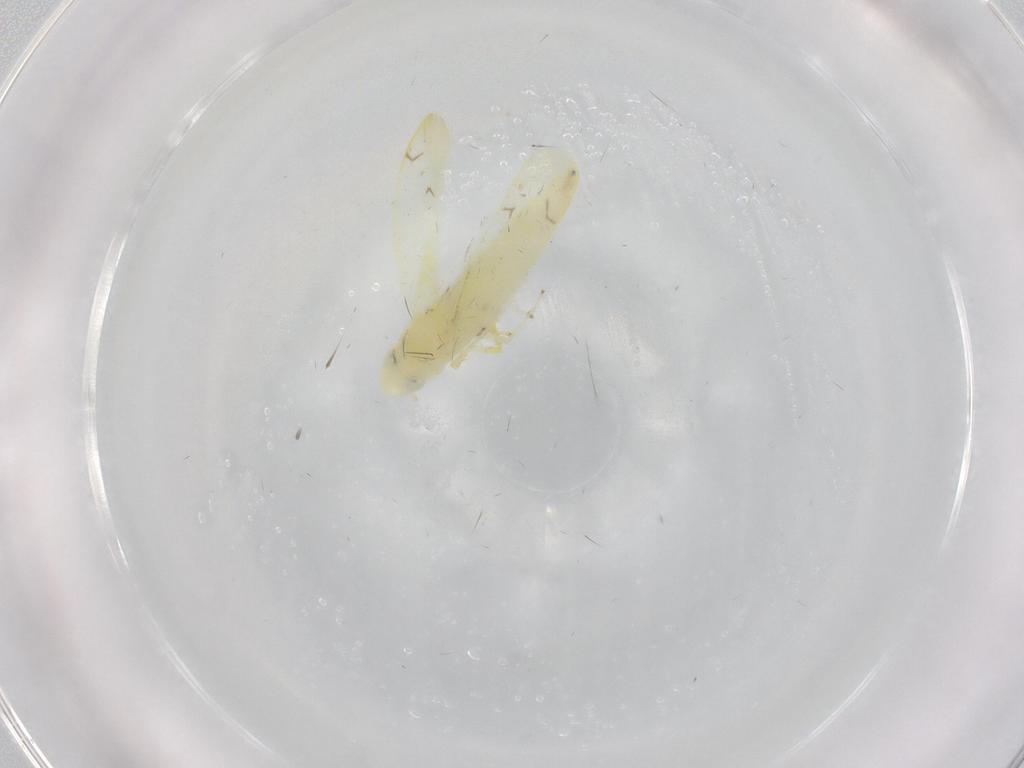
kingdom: Animalia
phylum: Arthropoda
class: Insecta
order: Hemiptera
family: Cicadellidae
